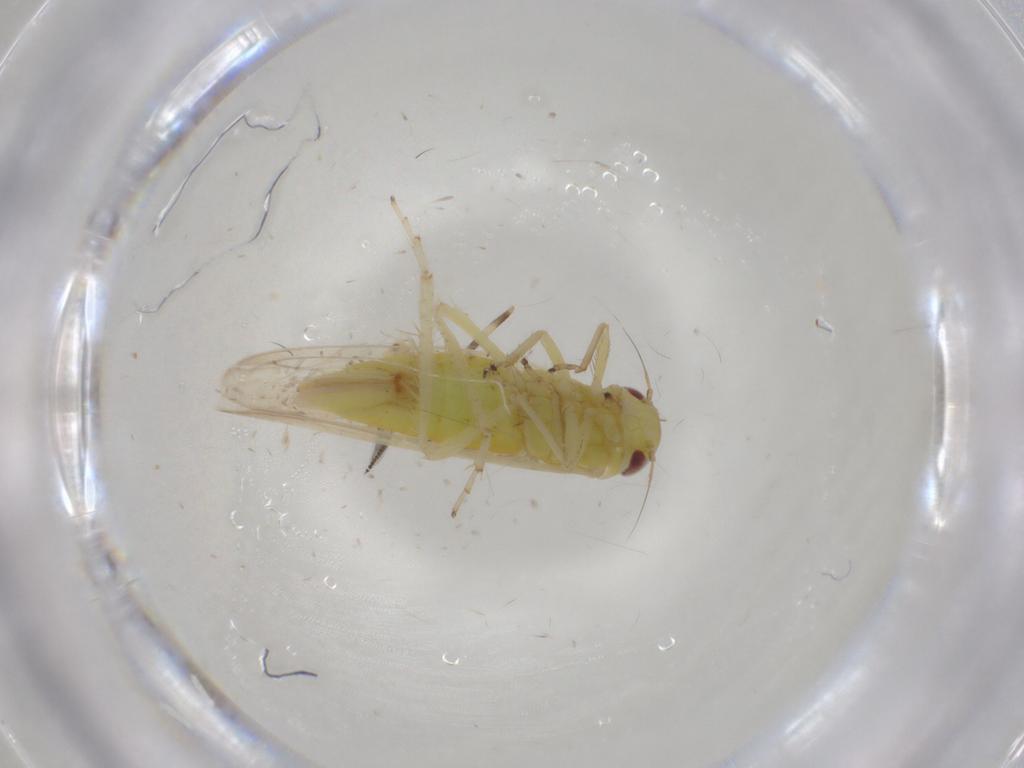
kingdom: Animalia
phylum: Arthropoda
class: Insecta
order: Hemiptera
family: Cicadellidae
